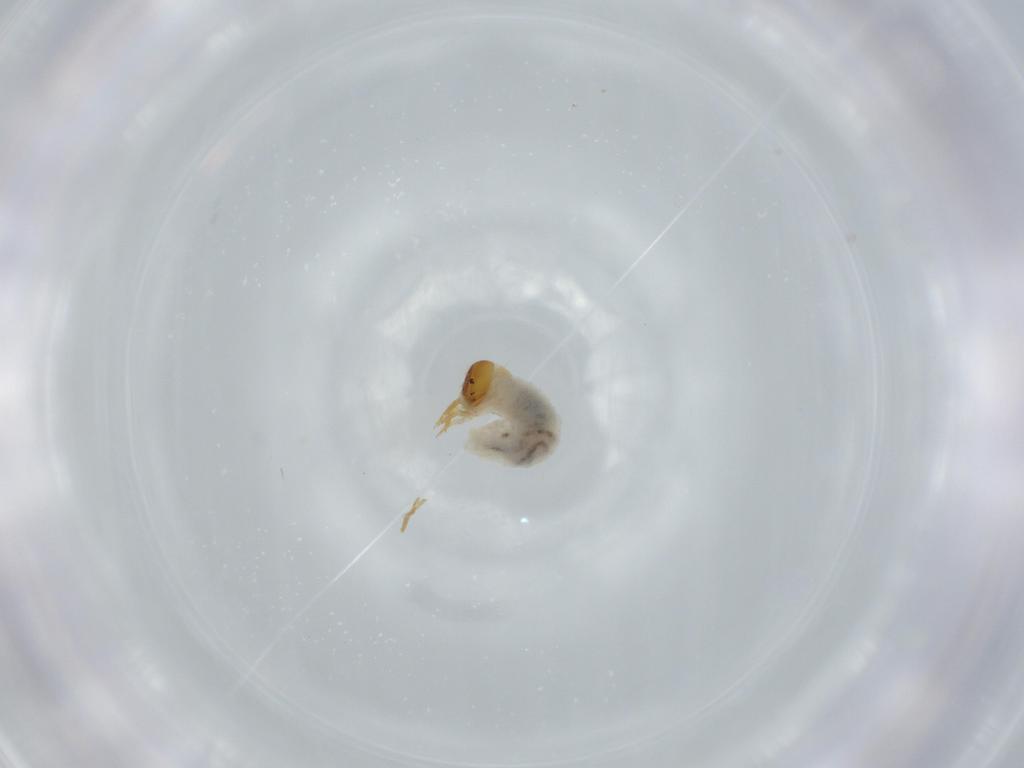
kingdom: Animalia
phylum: Arthropoda
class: Insecta
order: Coleoptera
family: Chrysomelidae
